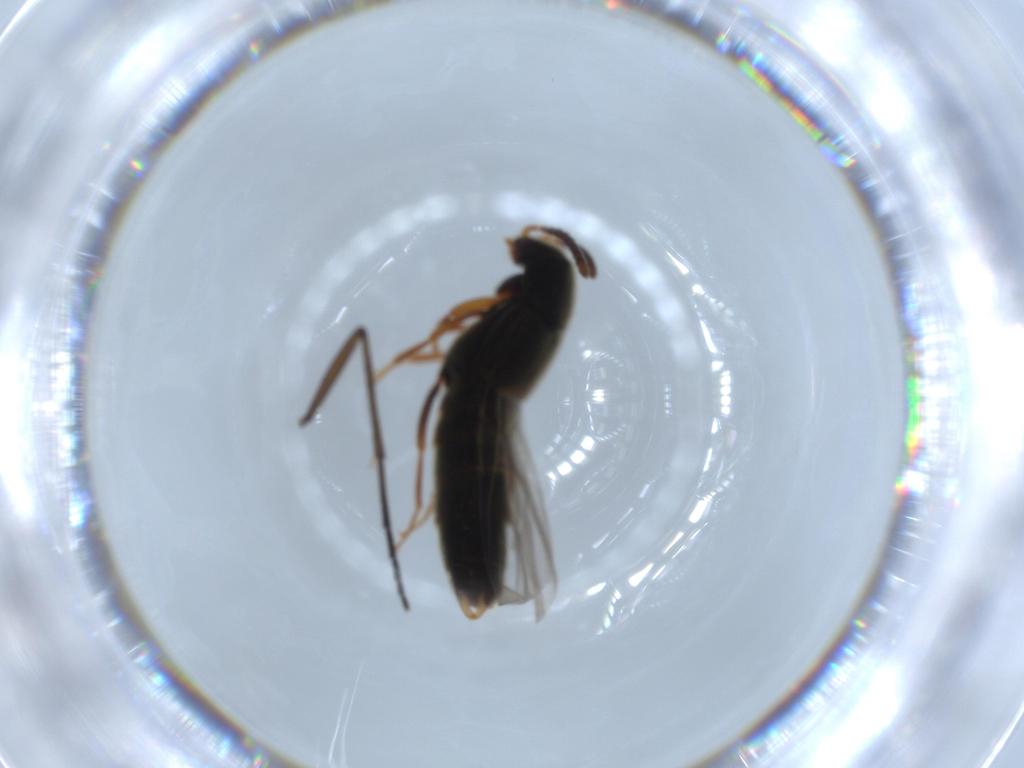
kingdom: Animalia
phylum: Arthropoda
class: Insecta
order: Coleoptera
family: Staphylinidae
